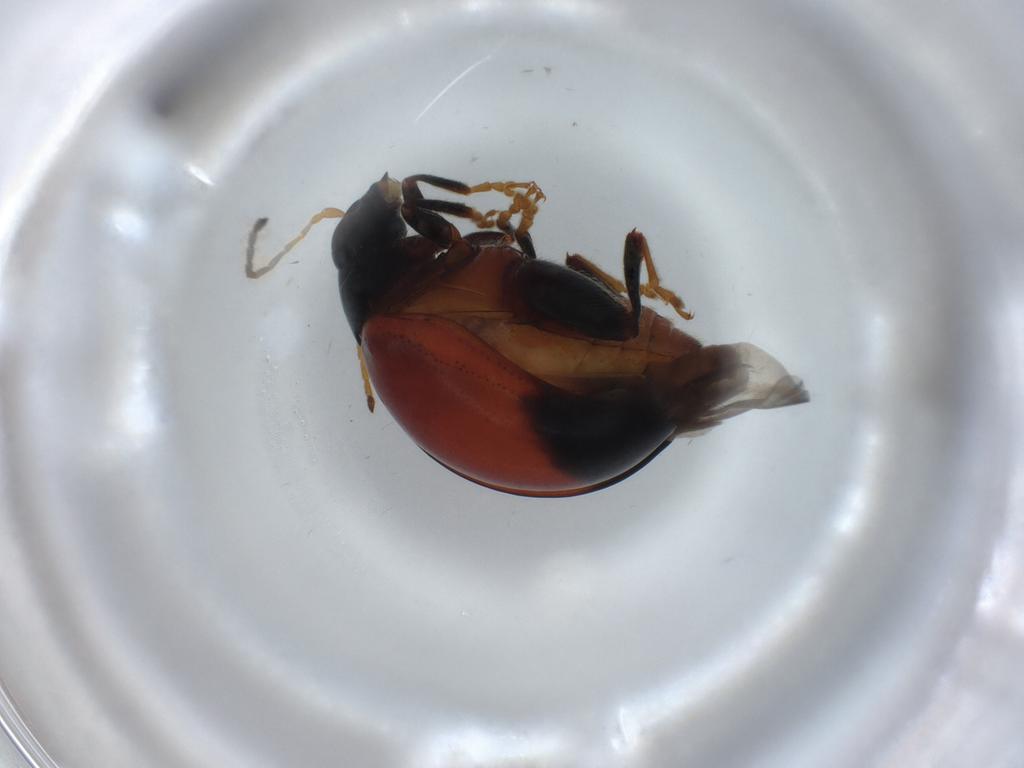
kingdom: Animalia
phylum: Arthropoda
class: Insecta
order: Coleoptera
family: Chrysomelidae
